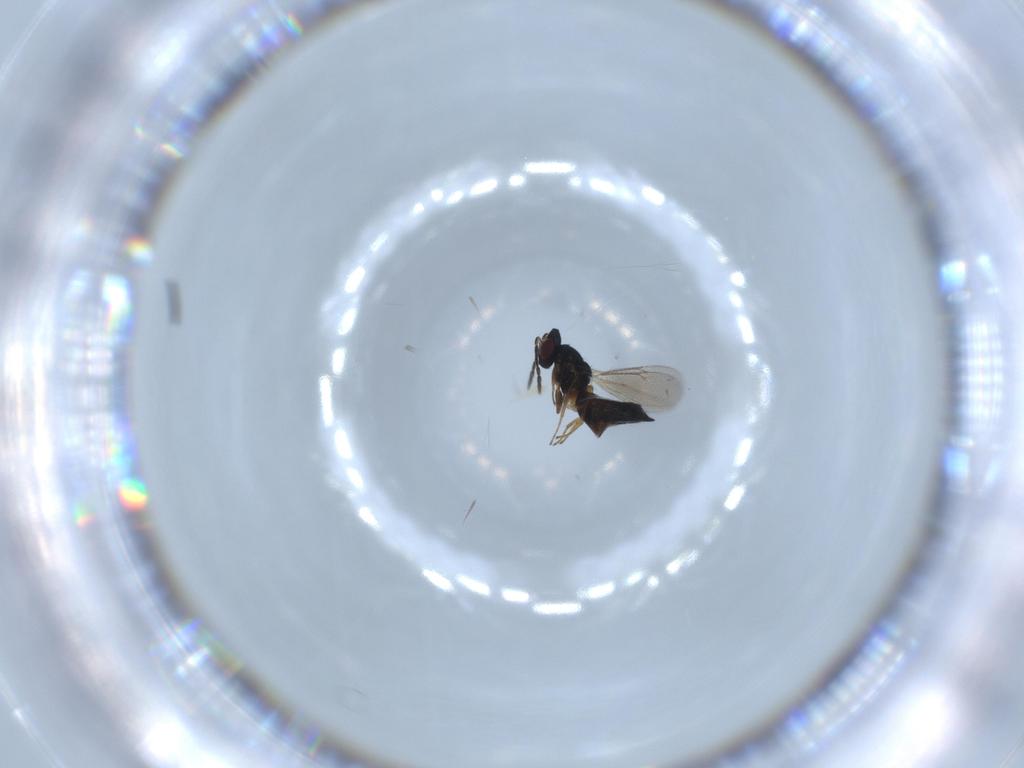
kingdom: Animalia
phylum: Arthropoda
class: Insecta
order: Hymenoptera
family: Eulophidae
